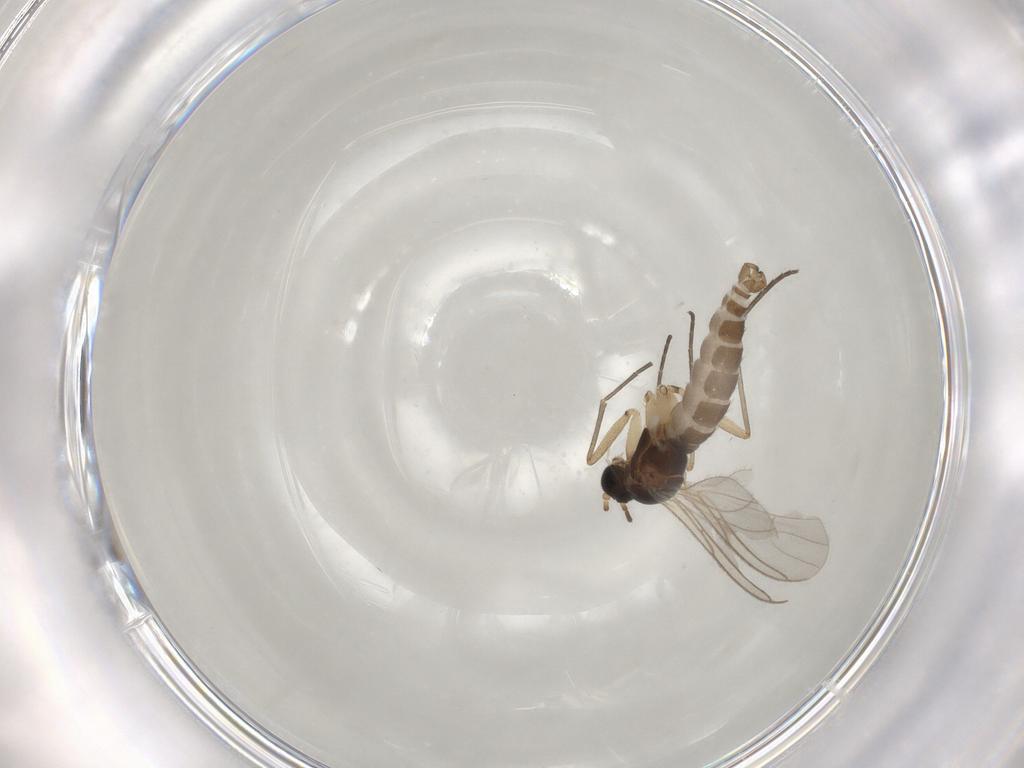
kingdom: Animalia
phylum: Arthropoda
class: Insecta
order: Diptera
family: Sciaridae
